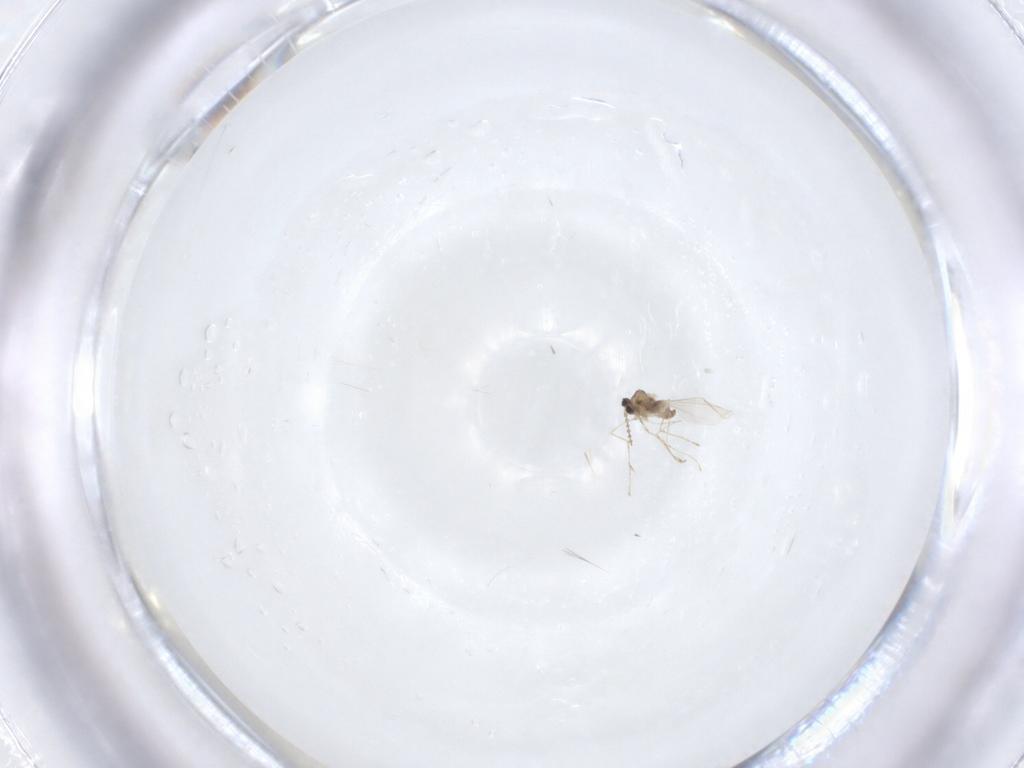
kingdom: Animalia
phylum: Arthropoda
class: Insecta
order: Diptera
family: Cecidomyiidae
